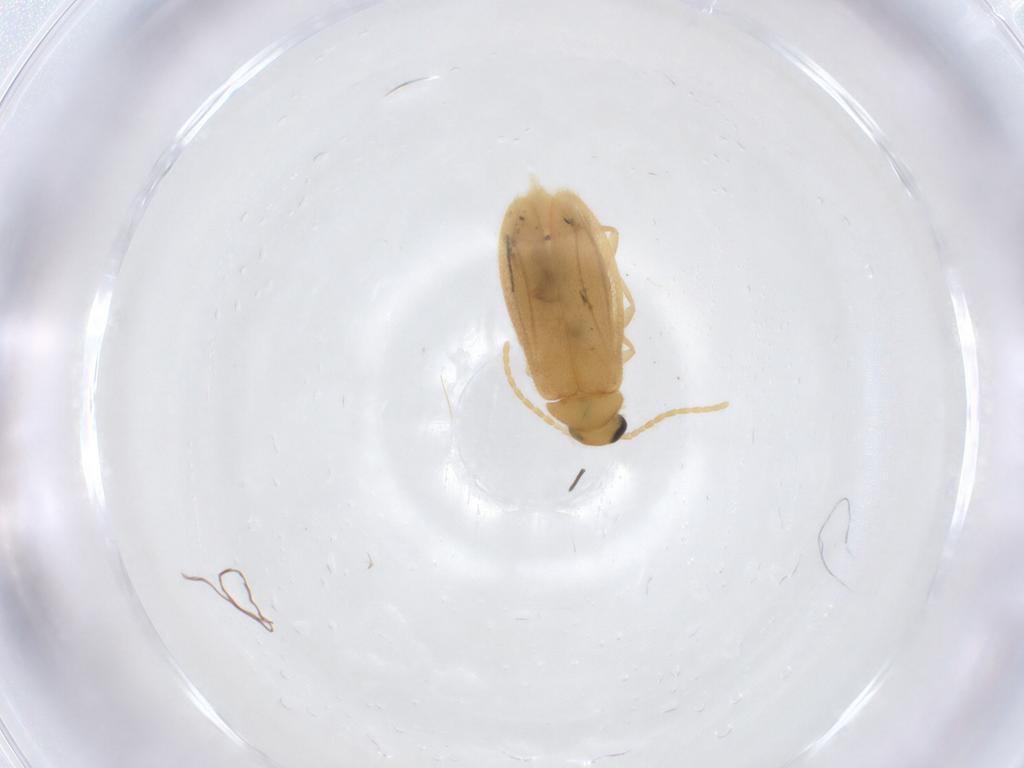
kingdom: Animalia
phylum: Arthropoda
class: Insecta
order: Coleoptera
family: Scraptiidae
